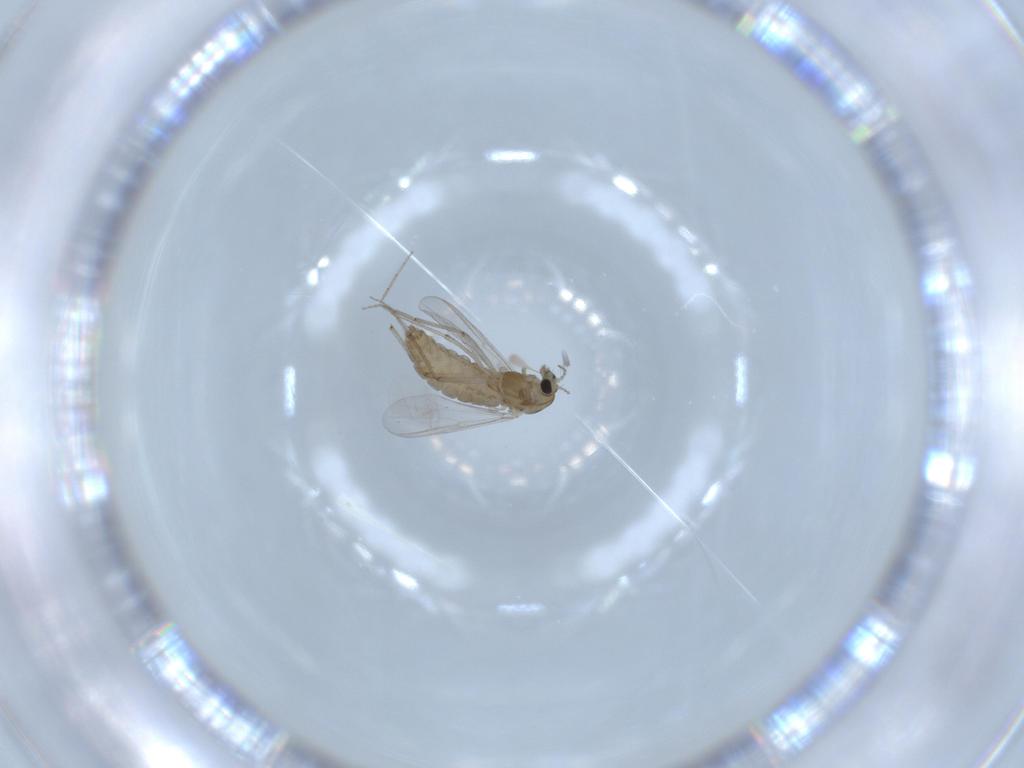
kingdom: Animalia
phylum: Arthropoda
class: Insecta
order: Diptera
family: Chironomidae
